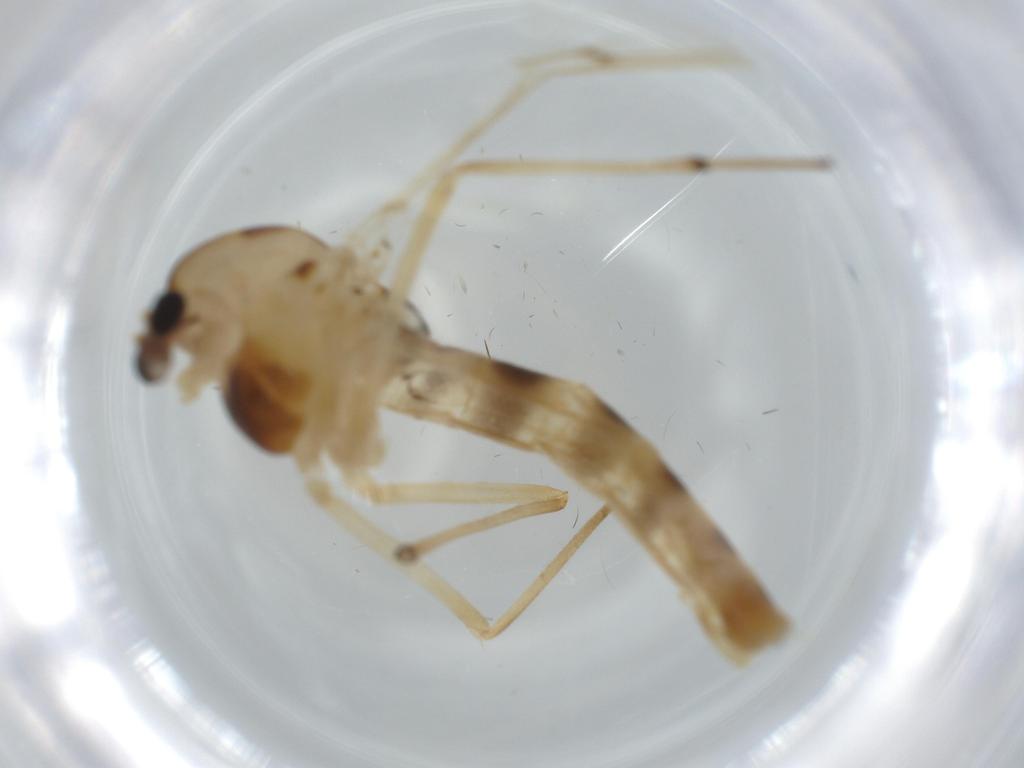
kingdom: Animalia
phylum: Arthropoda
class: Insecta
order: Diptera
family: Chironomidae
